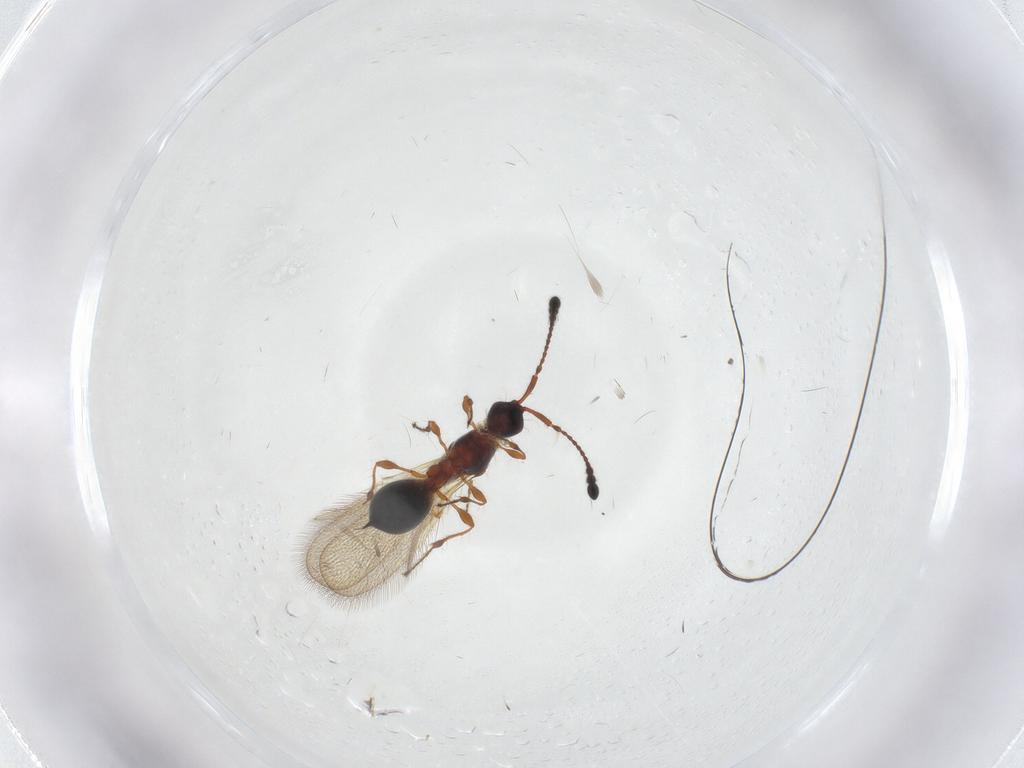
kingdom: Animalia
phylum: Arthropoda
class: Insecta
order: Hymenoptera
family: Diapriidae
